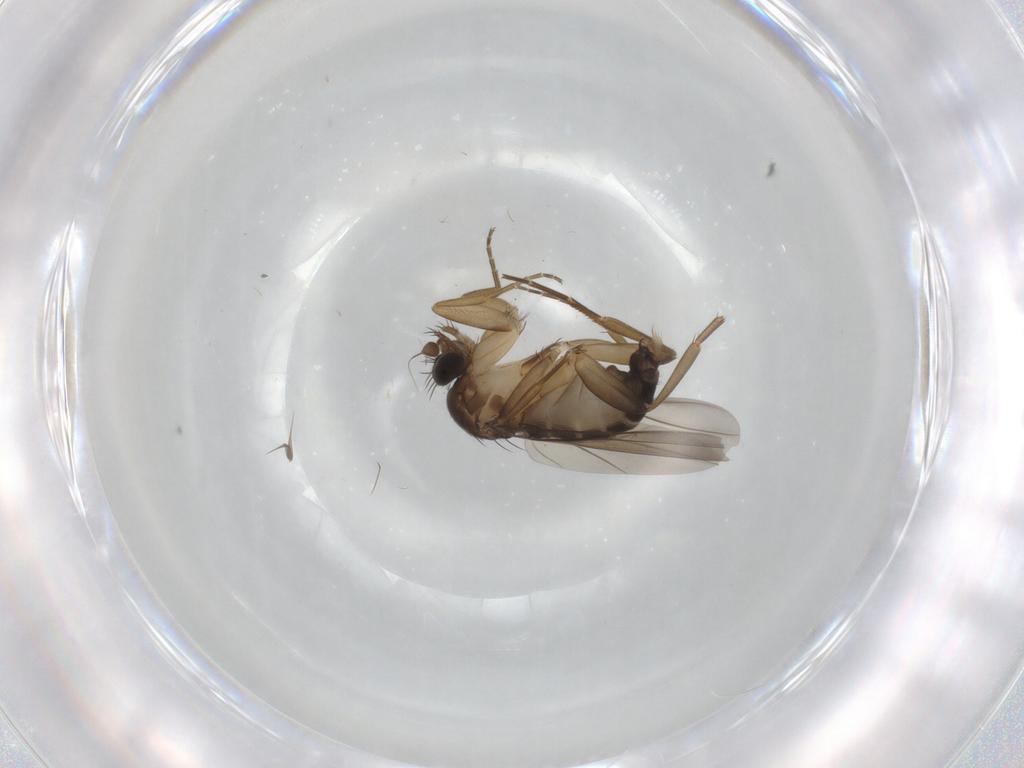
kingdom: Animalia
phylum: Arthropoda
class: Insecta
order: Diptera
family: Phoridae
